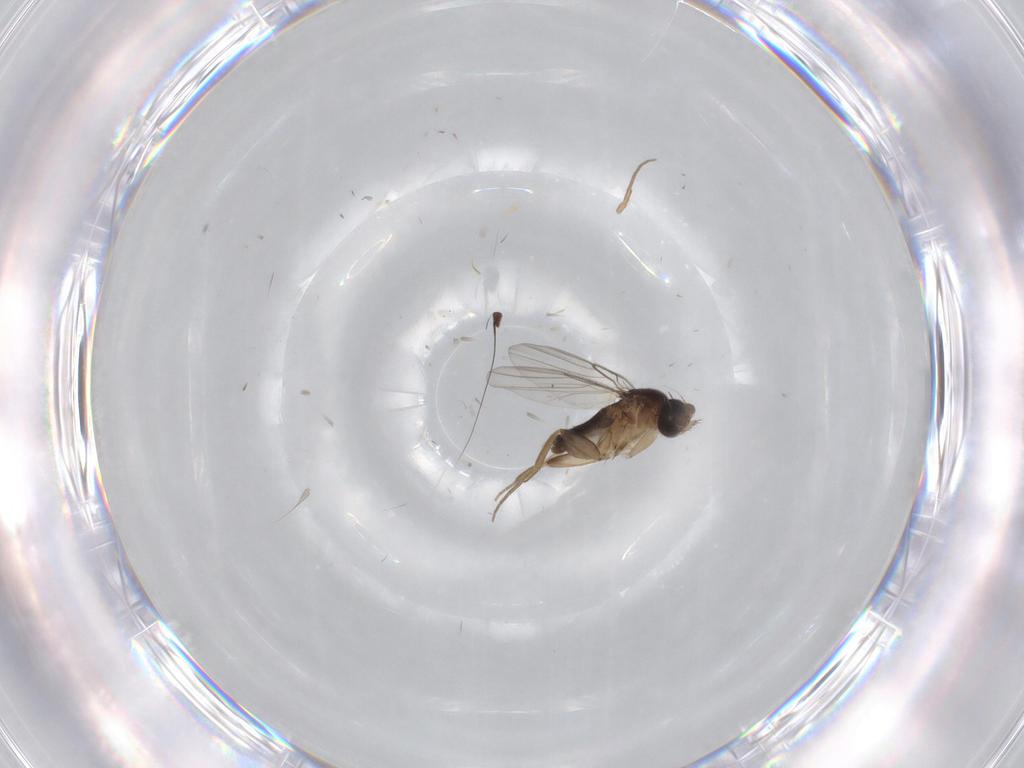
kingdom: Animalia
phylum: Arthropoda
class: Insecta
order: Diptera
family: Phoridae
